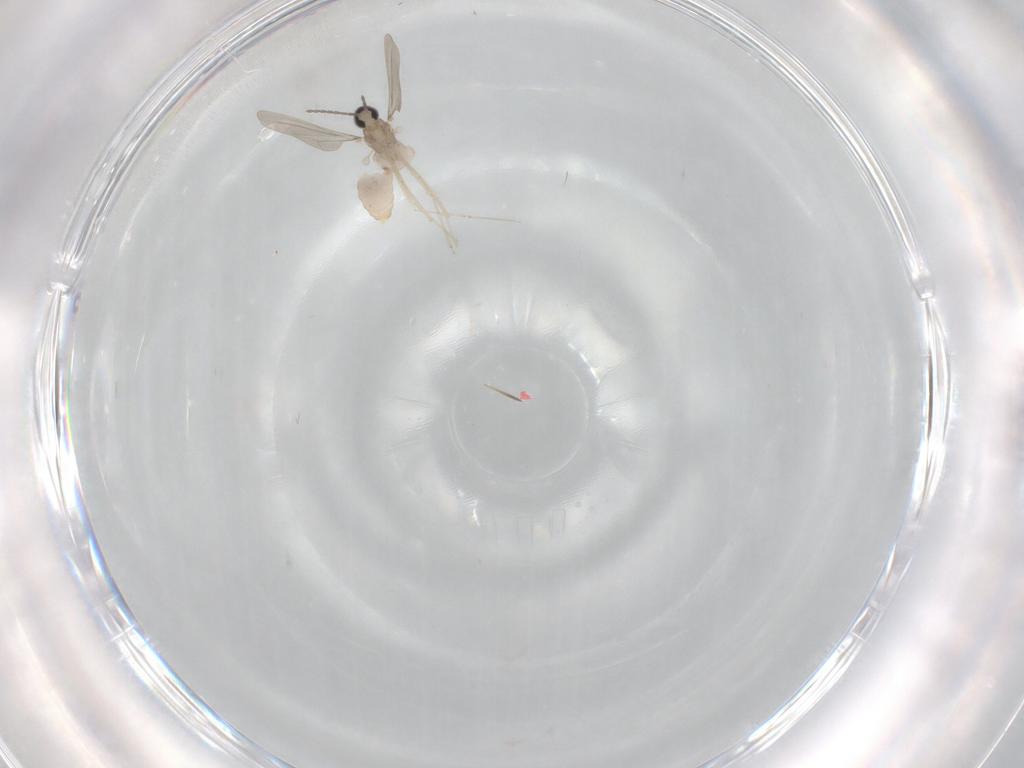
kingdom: Animalia
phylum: Arthropoda
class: Insecta
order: Diptera
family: Cecidomyiidae
